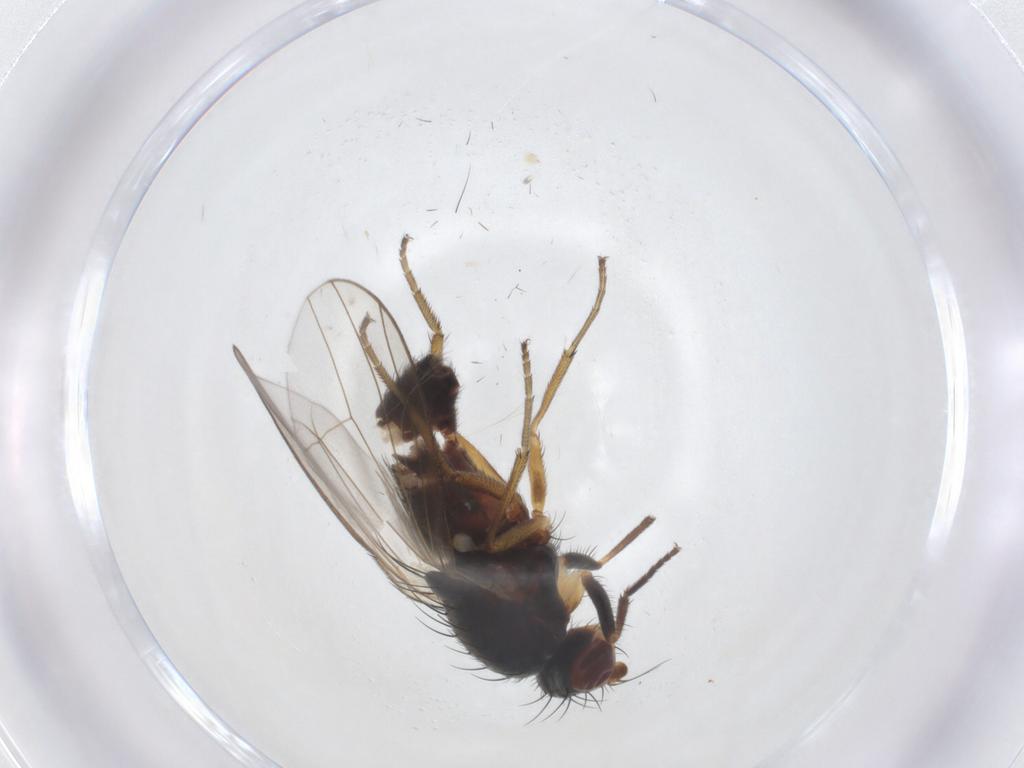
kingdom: Animalia
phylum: Arthropoda
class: Insecta
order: Diptera
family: Heleomyzidae
